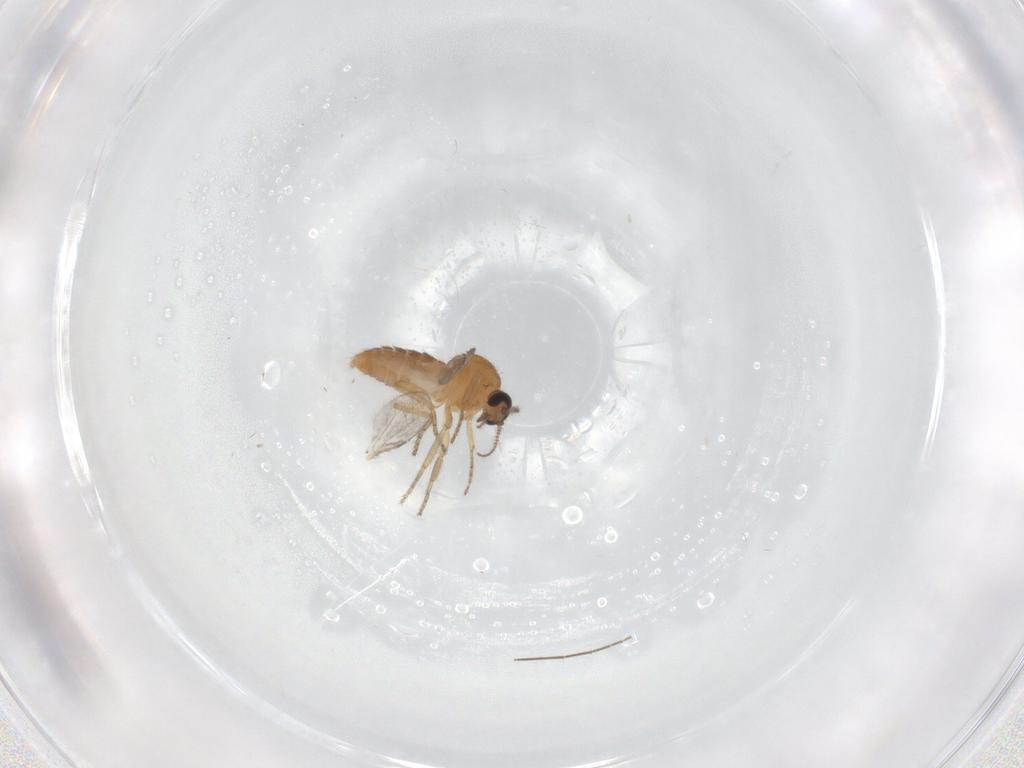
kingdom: Animalia
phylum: Arthropoda
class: Insecta
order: Diptera
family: Ceratopogonidae
